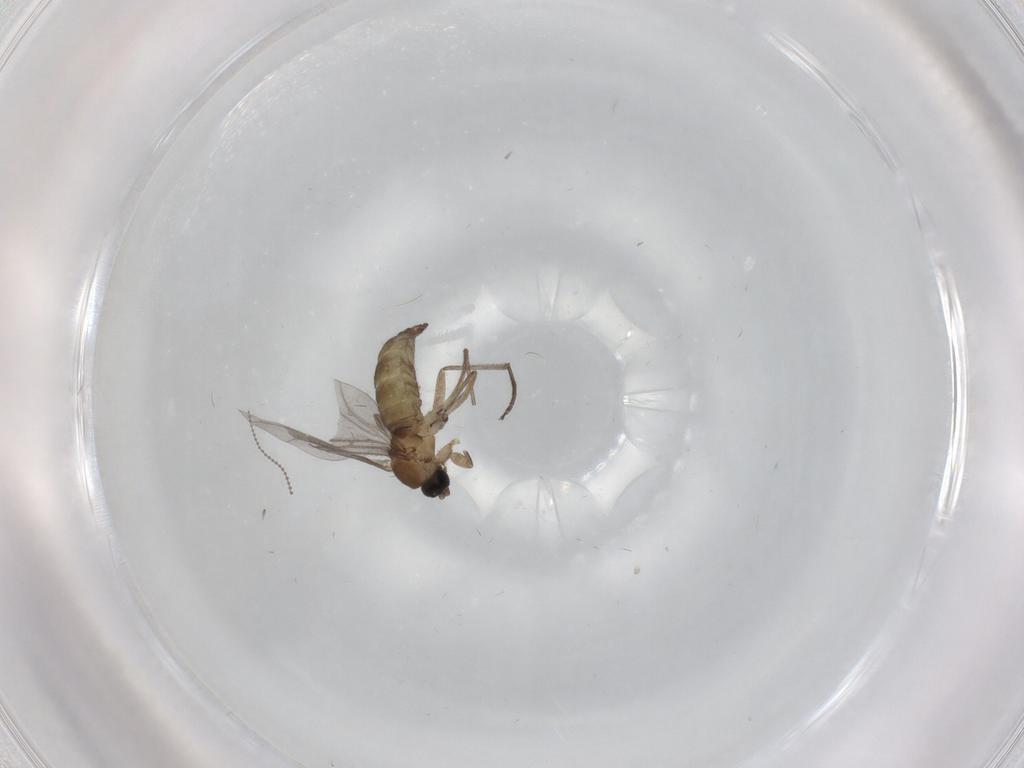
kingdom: Animalia
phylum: Arthropoda
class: Insecta
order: Diptera
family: Sciaridae
